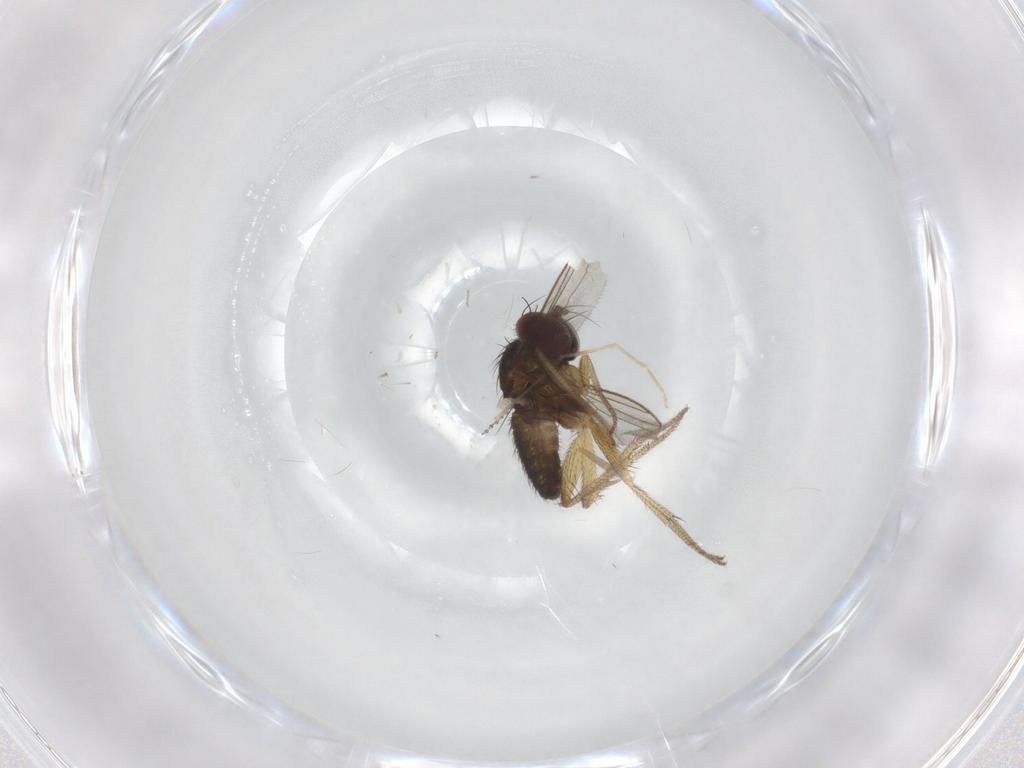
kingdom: Animalia
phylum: Arthropoda
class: Insecta
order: Diptera
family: Chironomidae
